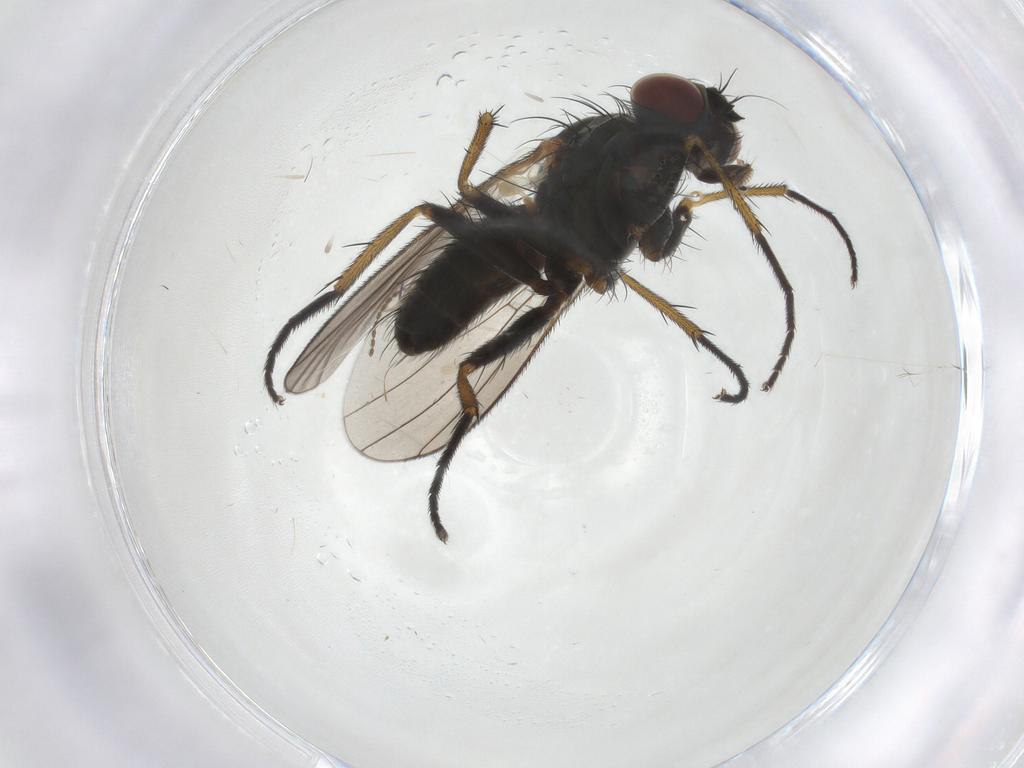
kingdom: Animalia
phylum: Arthropoda
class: Insecta
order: Diptera
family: Muscidae
